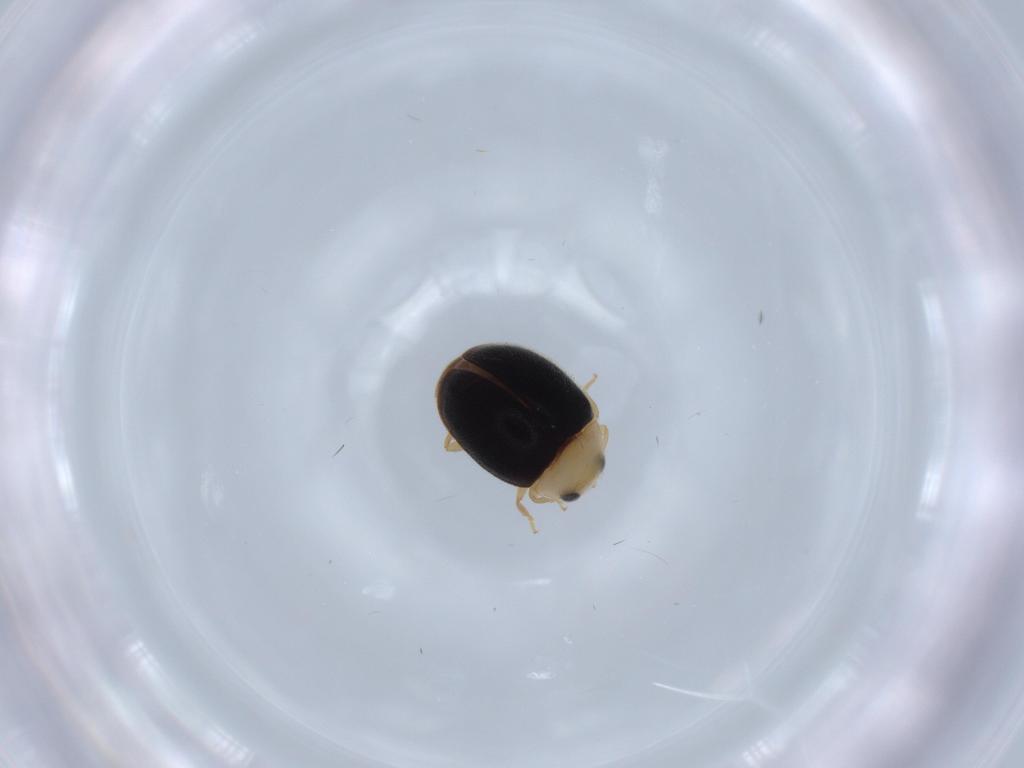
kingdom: Animalia
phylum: Arthropoda
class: Insecta
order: Coleoptera
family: Coccinellidae
